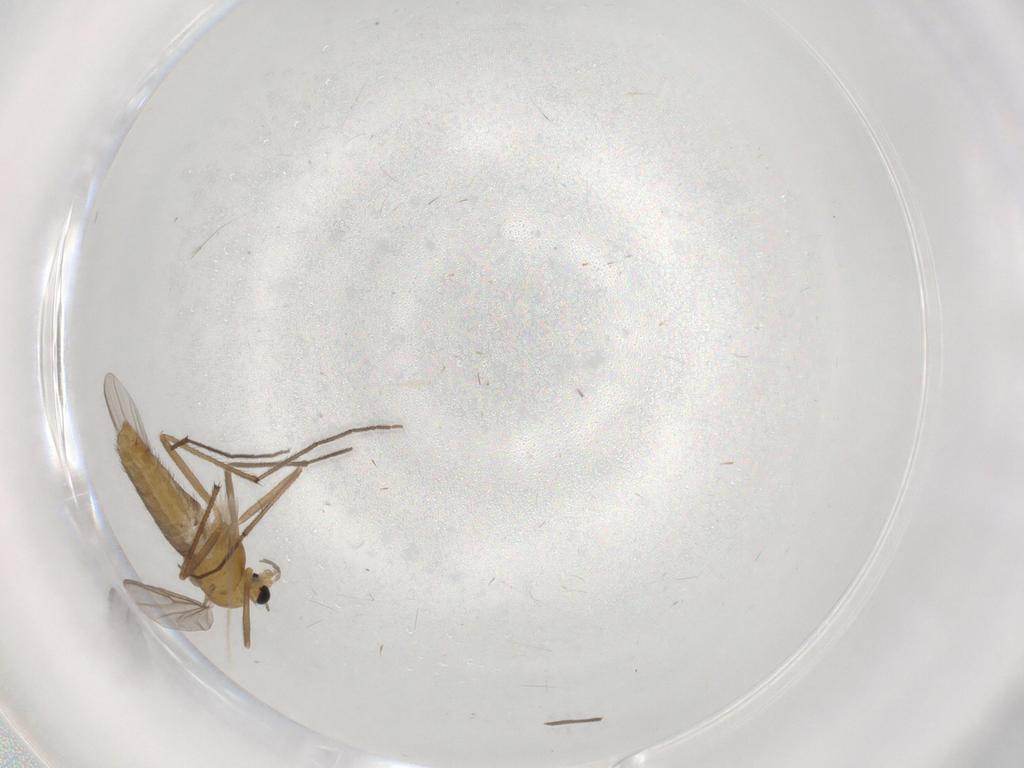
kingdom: Animalia
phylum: Arthropoda
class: Insecta
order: Diptera
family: Chironomidae
